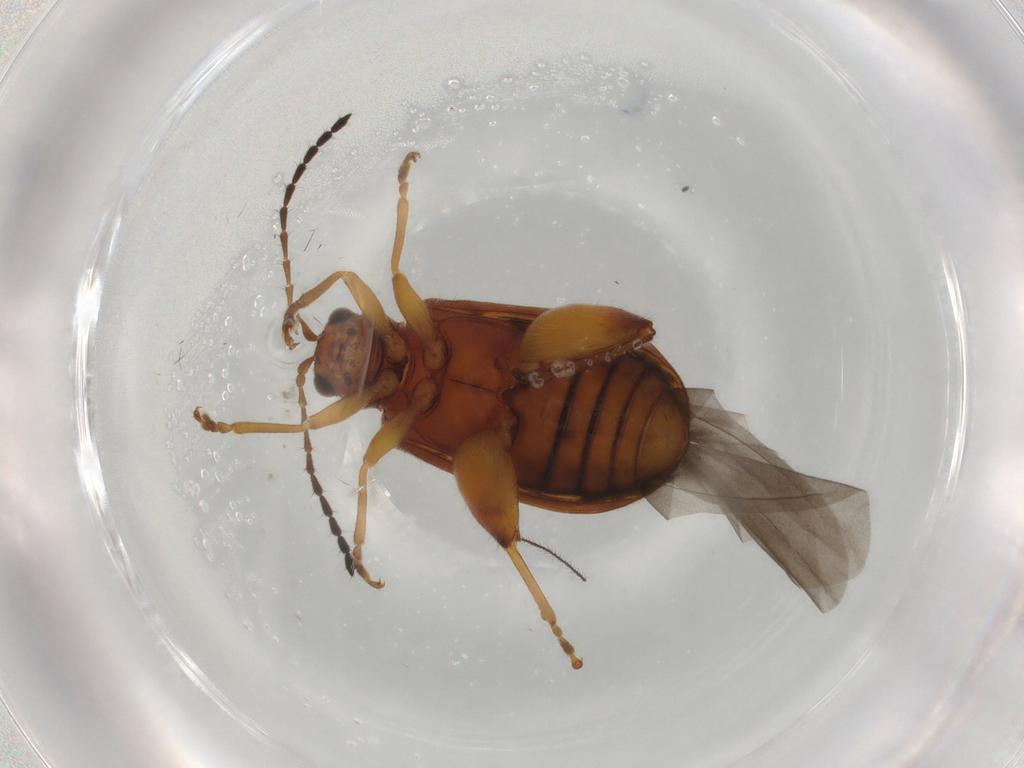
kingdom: Animalia
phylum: Arthropoda
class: Insecta
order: Coleoptera
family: Chrysomelidae
